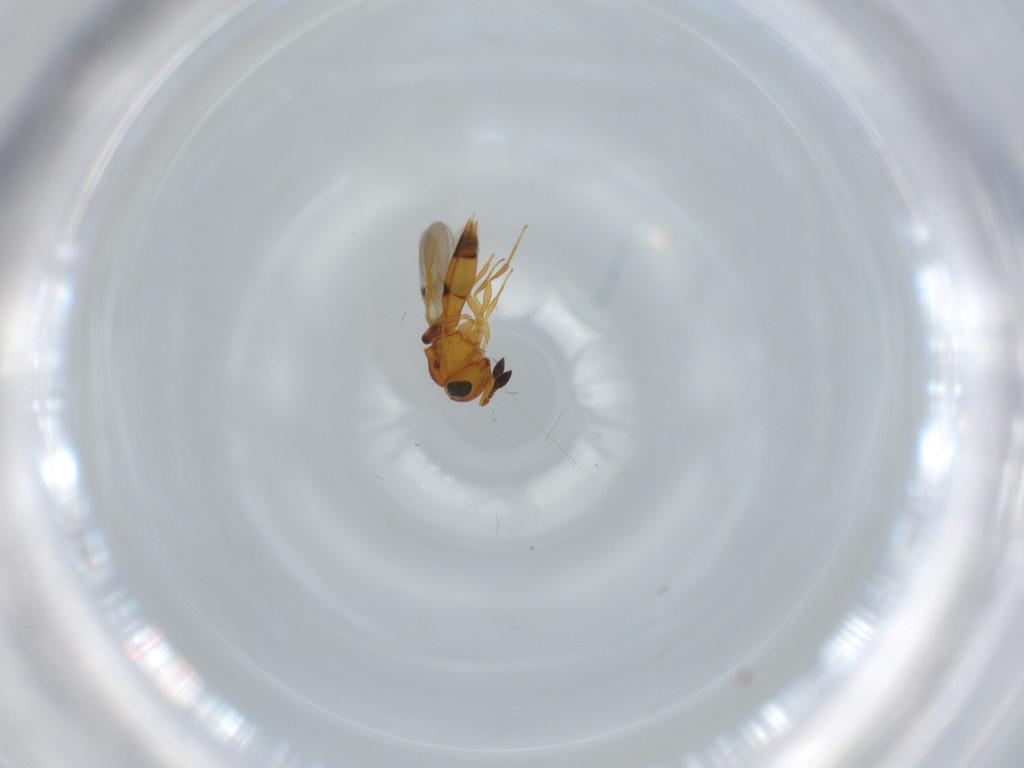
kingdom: Animalia
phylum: Arthropoda
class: Insecta
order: Hymenoptera
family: Scelionidae
